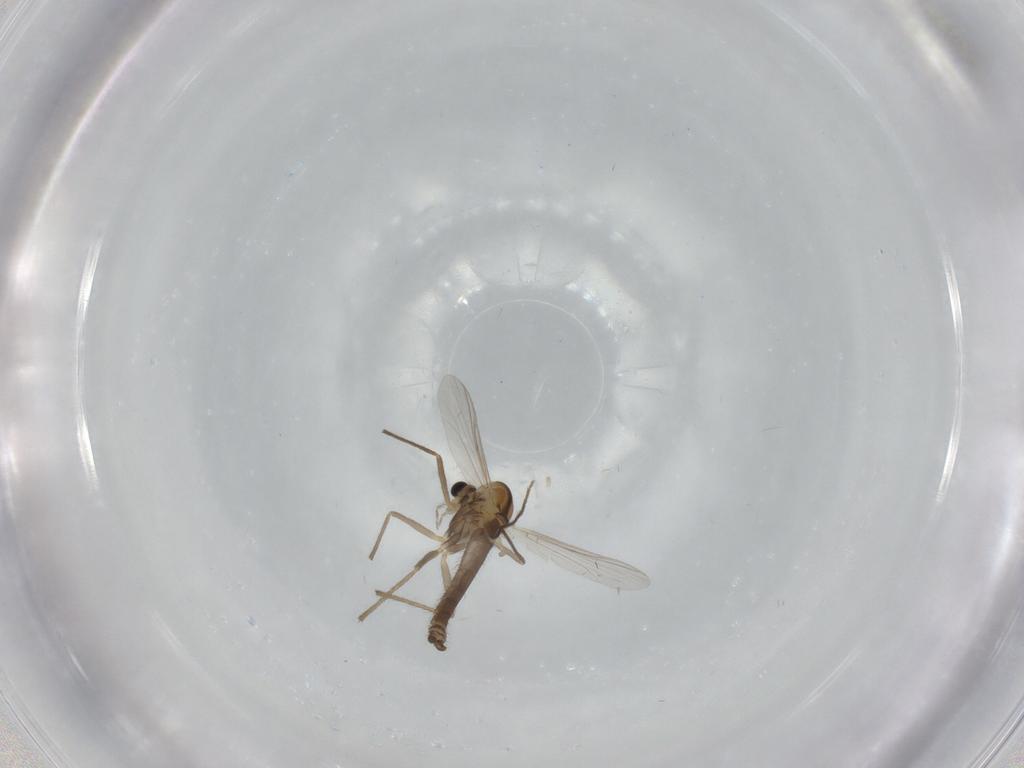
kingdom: Animalia
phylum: Arthropoda
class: Insecta
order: Diptera
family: Chironomidae
